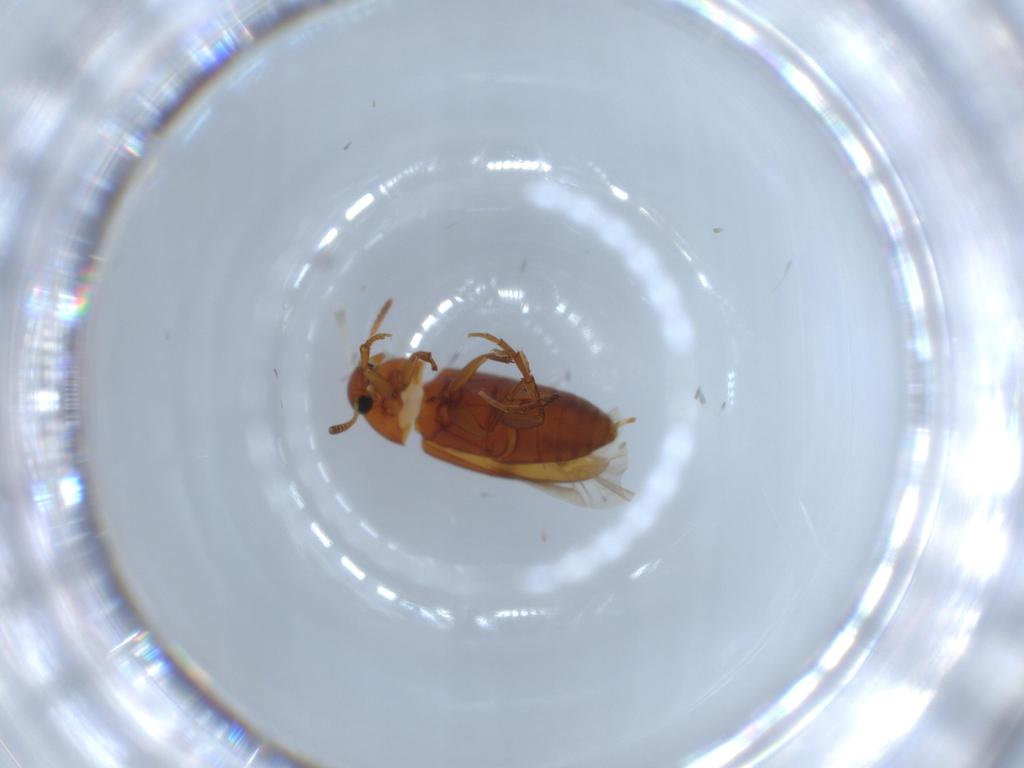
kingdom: Animalia
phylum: Arthropoda
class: Insecta
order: Coleoptera
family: Scraptiidae
